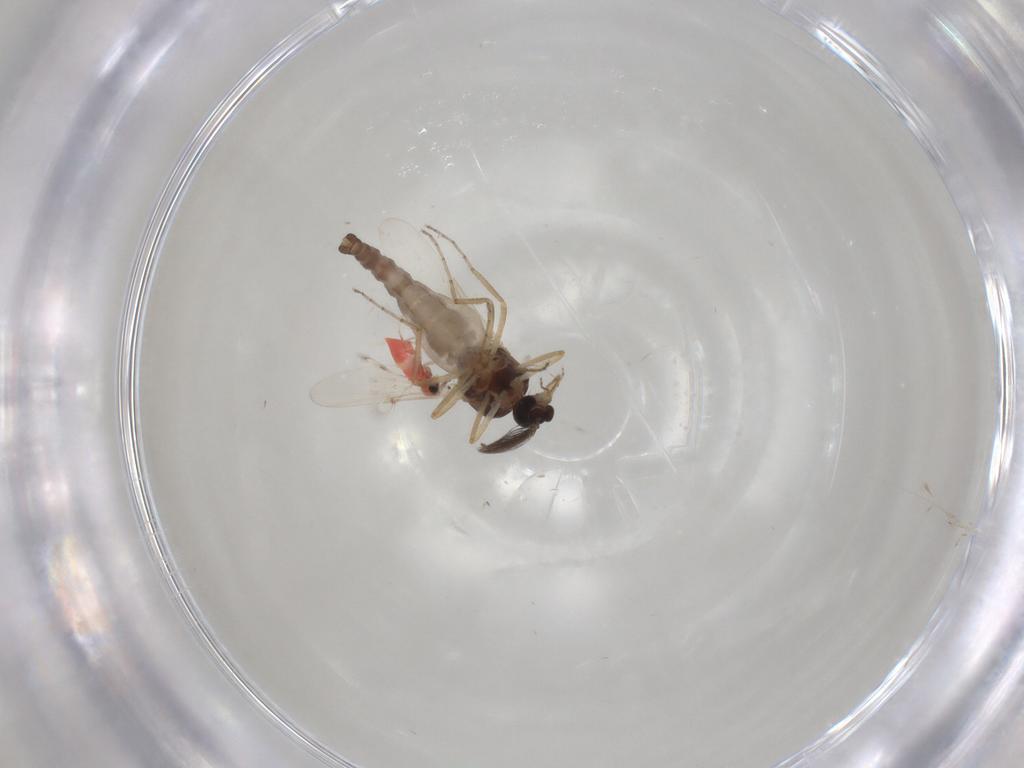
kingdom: Animalia
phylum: Arthropoda
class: Insecta
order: Diptera
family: Ceratopogonidae
